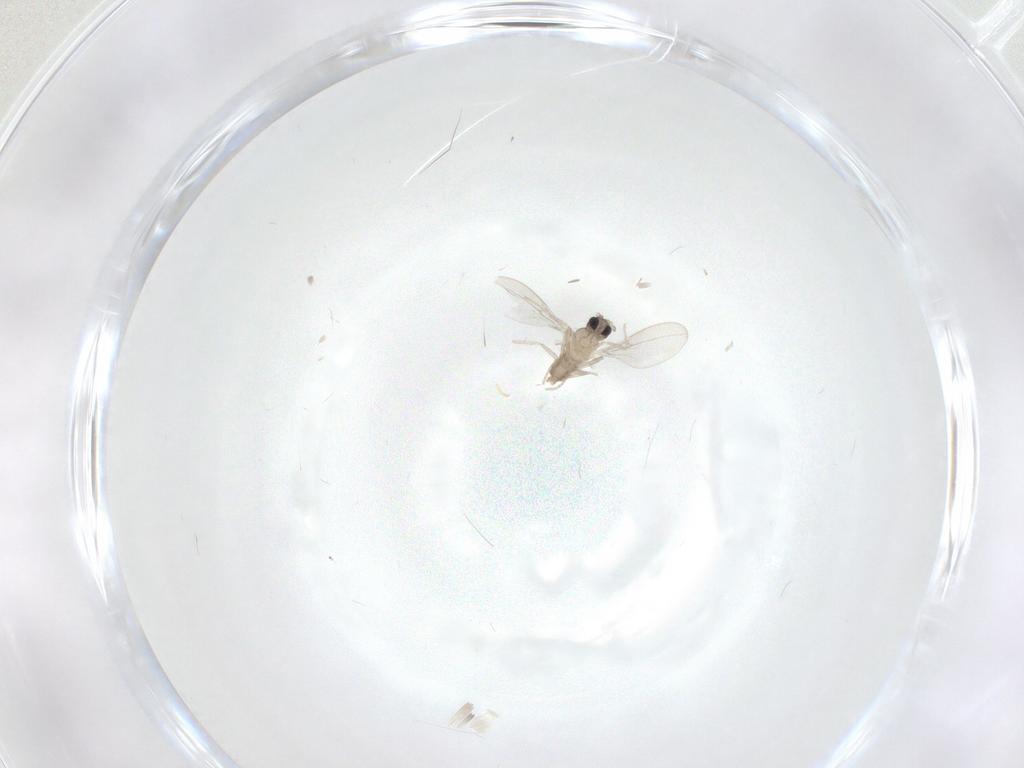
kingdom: Animalia
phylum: Arthropoda
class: Insecta
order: Diptera
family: Cecidomyiidae
